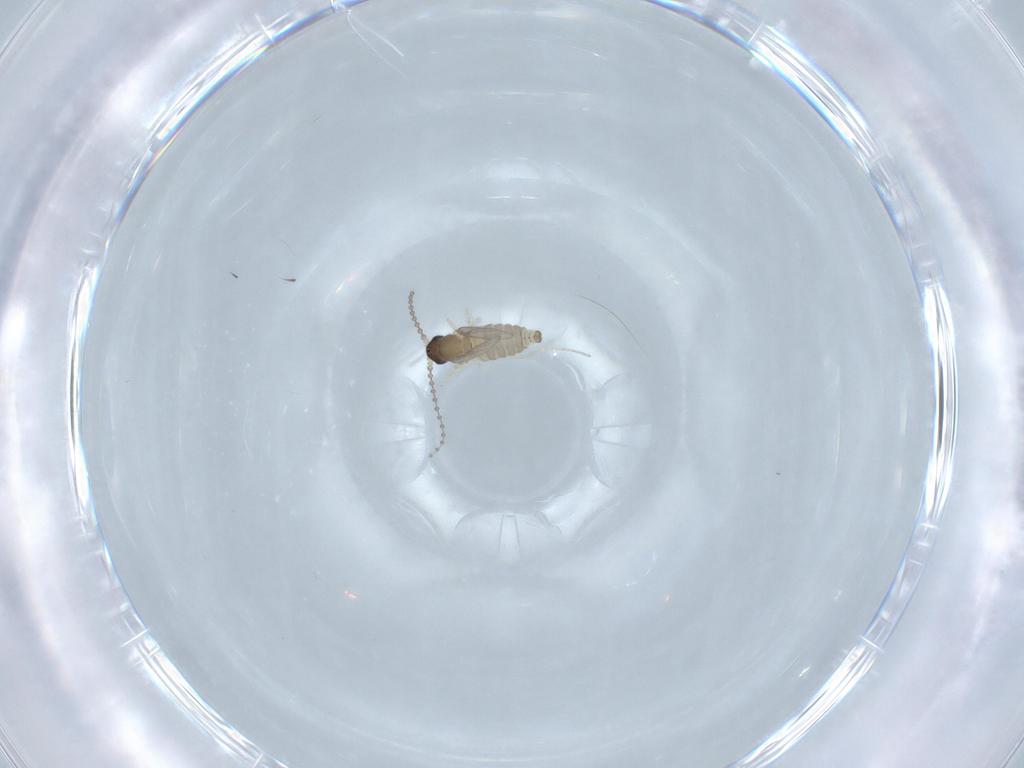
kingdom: Animalia
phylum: Arthropoda
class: Insecta
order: Diptera
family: Cecidomyiidae
